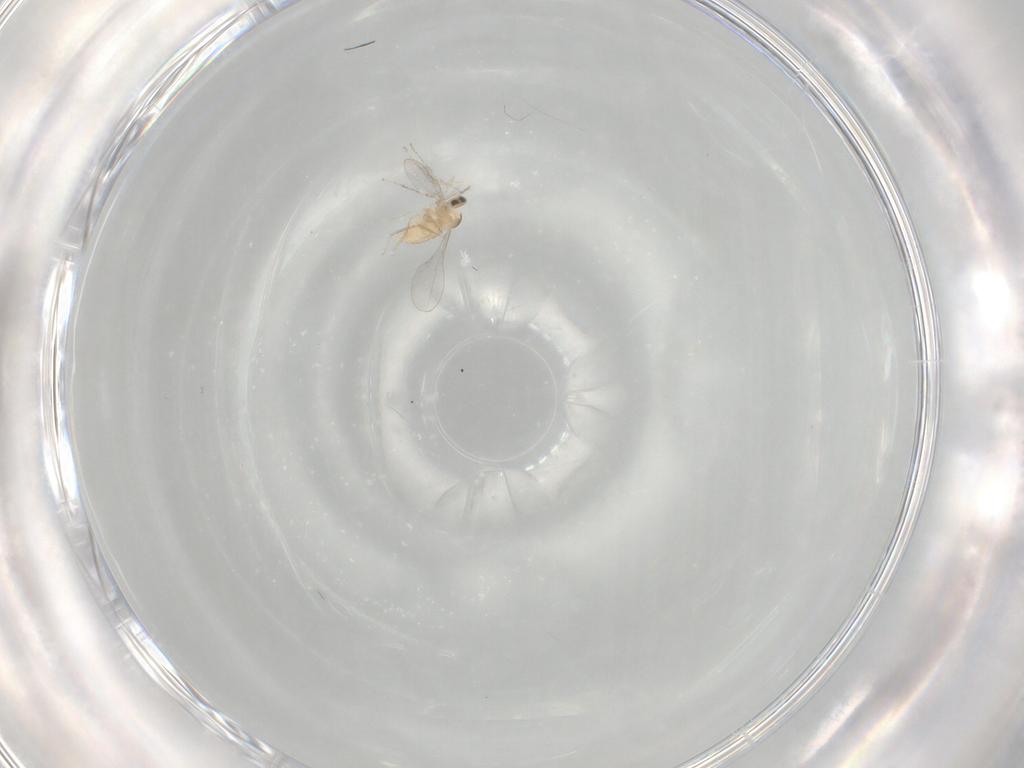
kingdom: Animalia
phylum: Arthropoda
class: Insecta
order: Diptera
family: Cecidomyiidae
